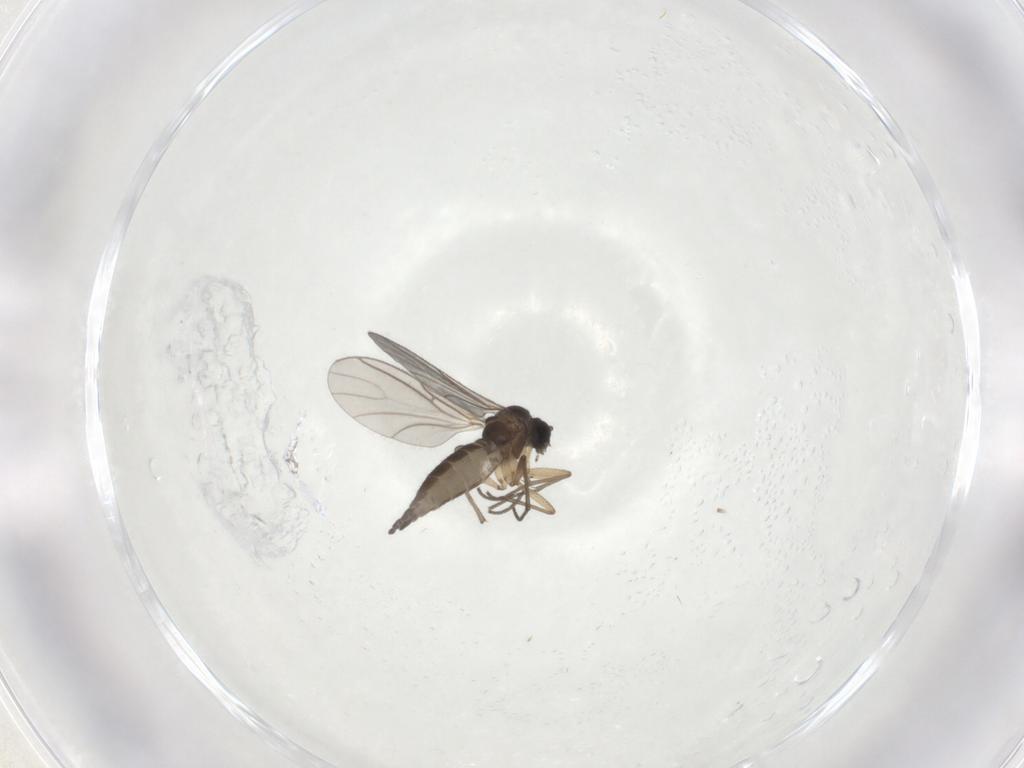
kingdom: Animalia
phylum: Arthropoda
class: Insecta
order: Diptera
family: Sciaridae
